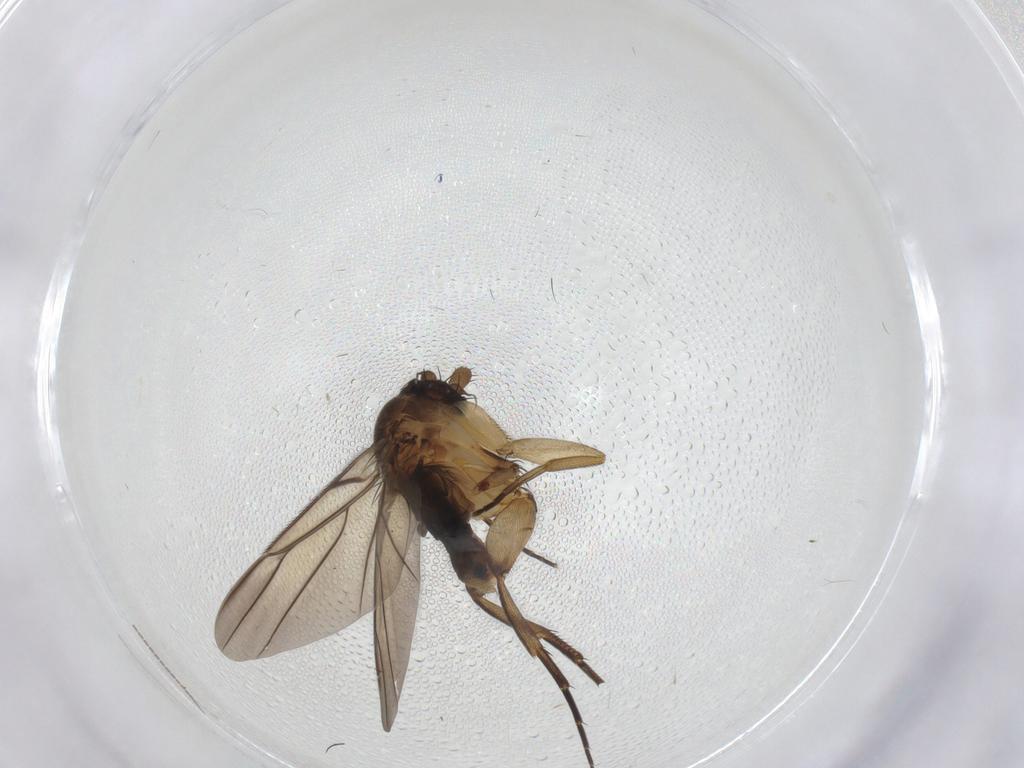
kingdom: Animalia
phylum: Arthropoda
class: Insecta
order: Diptera
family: Phoridae
